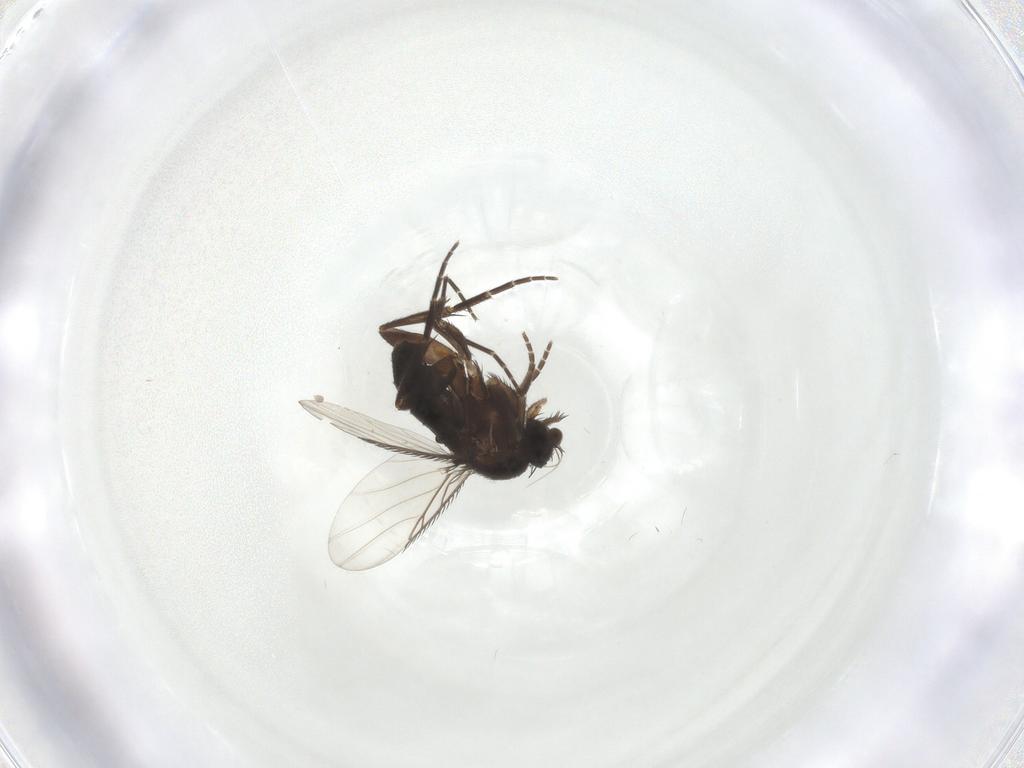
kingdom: Animalia
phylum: Arthropoda
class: Insecta
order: Diptera
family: Phoridae
